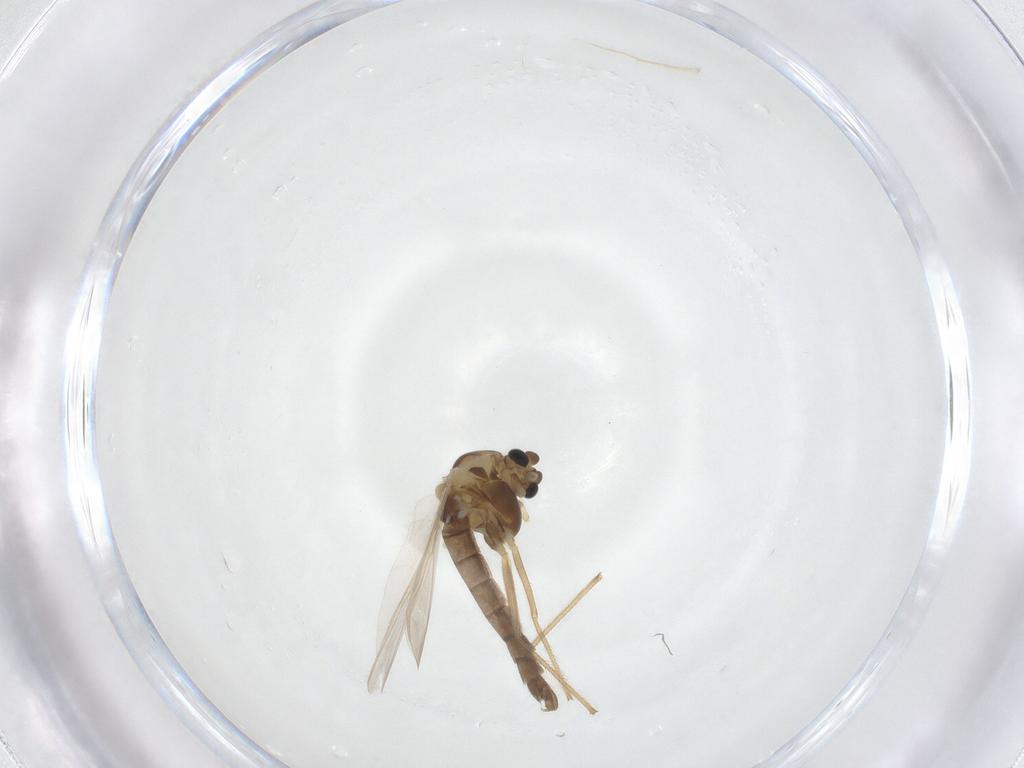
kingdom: Animalia
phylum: Arthropoda
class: Insecta
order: Diptera
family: Chironomidae
